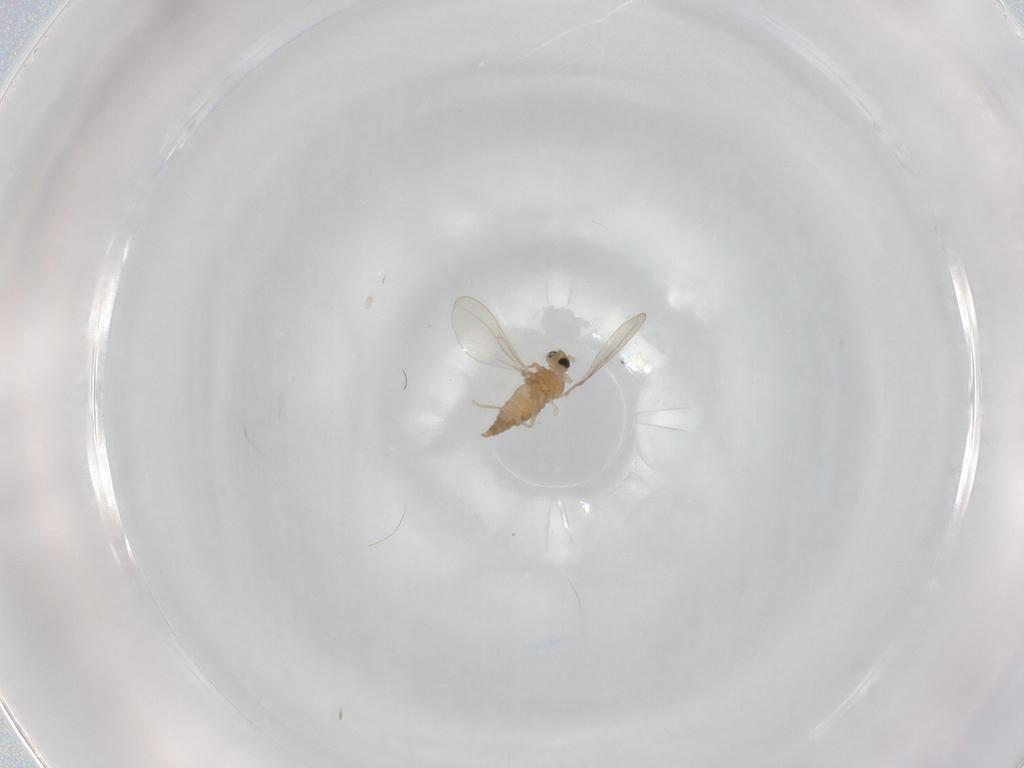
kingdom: Animalia
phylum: Arthropoda
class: Insecta
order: Diptera
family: Cecidomyiidae
